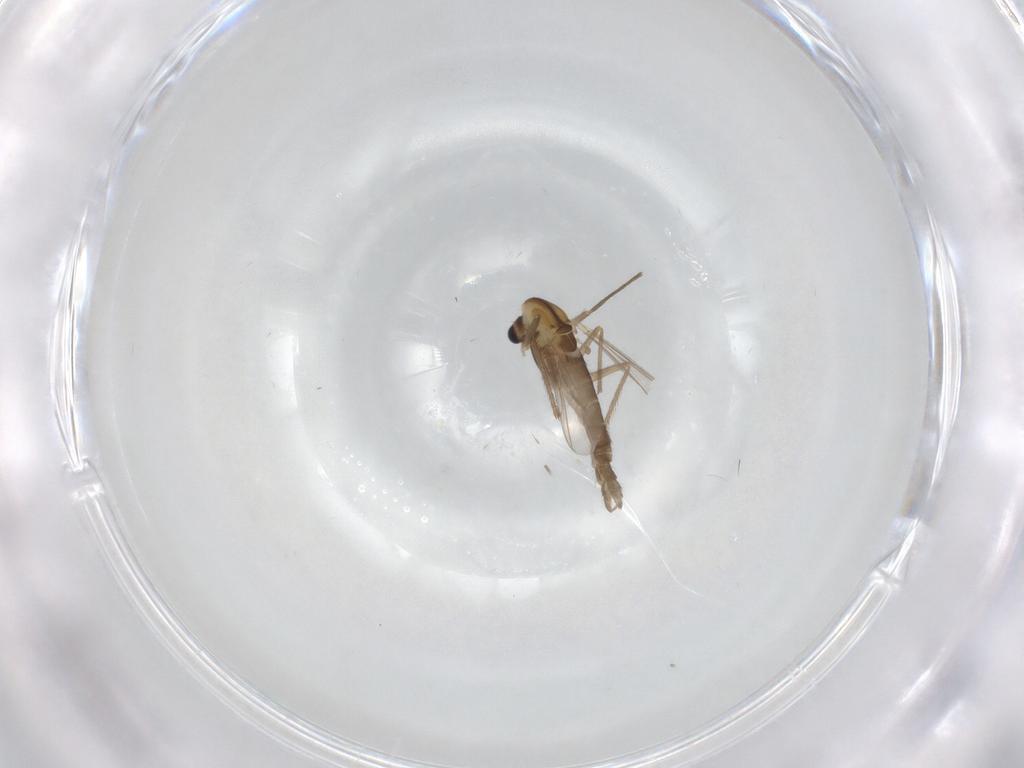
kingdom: Animalia
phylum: Arthropoda
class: Insecta
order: Diptera
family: Chironomidae
